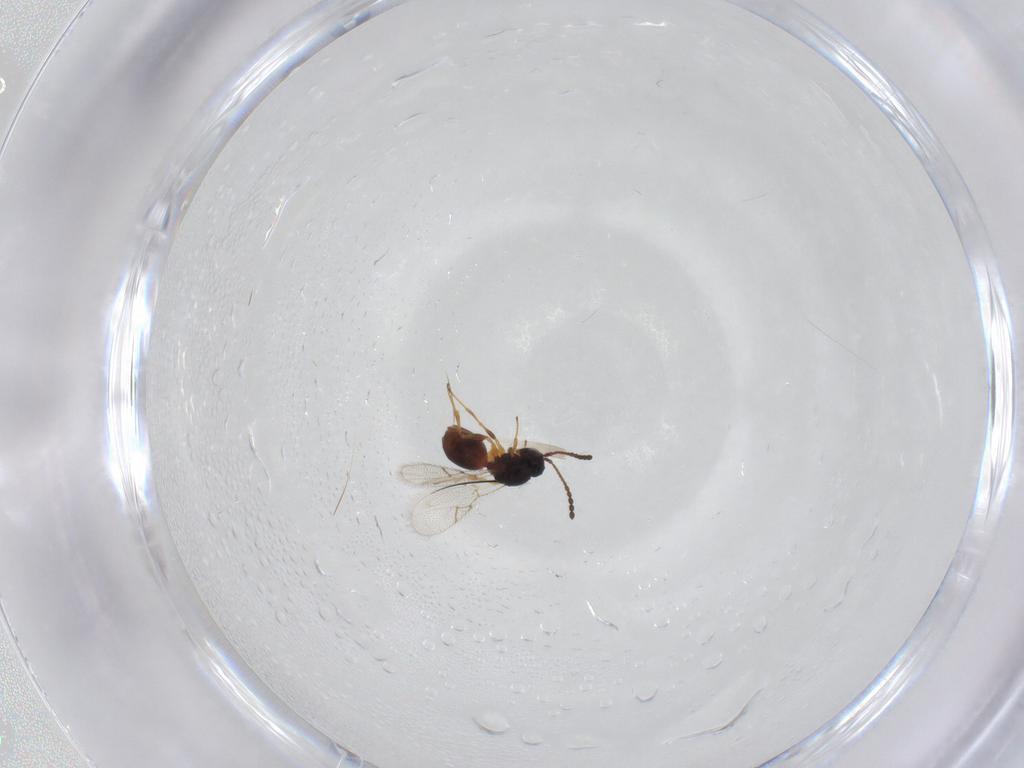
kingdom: Animalia
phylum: Arthropoda
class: Insecta
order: Hymenoptera
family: Figitidae
